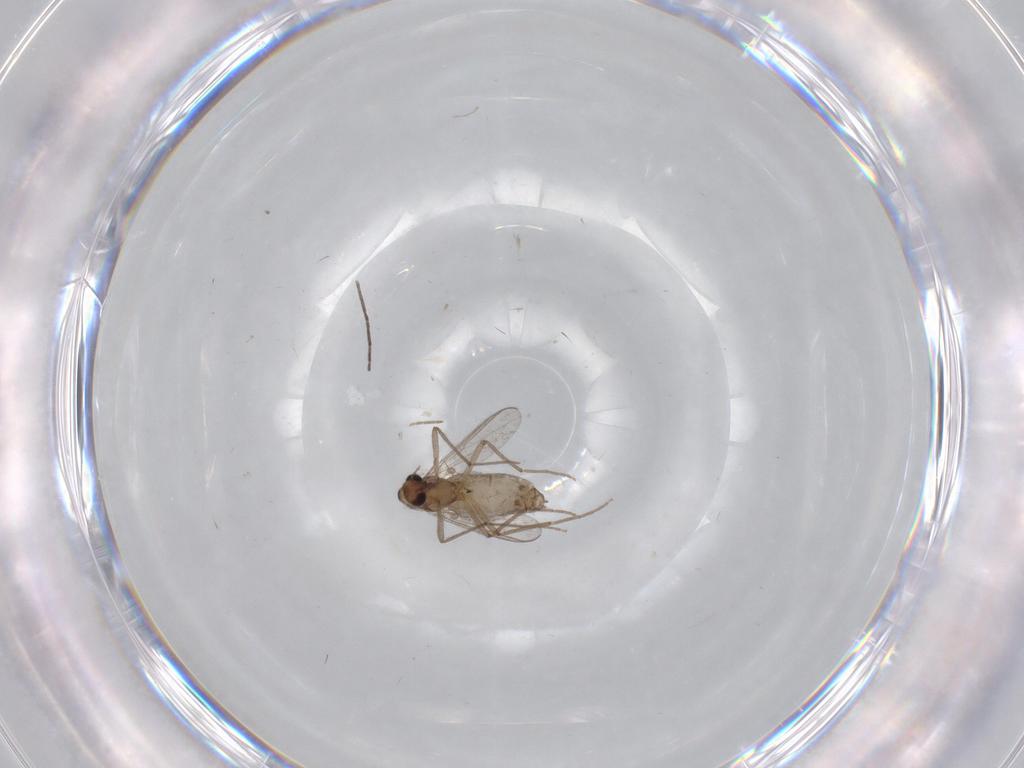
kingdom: Animalia
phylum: Arthropoda
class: Insecta
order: Diptera
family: Chironomidae
